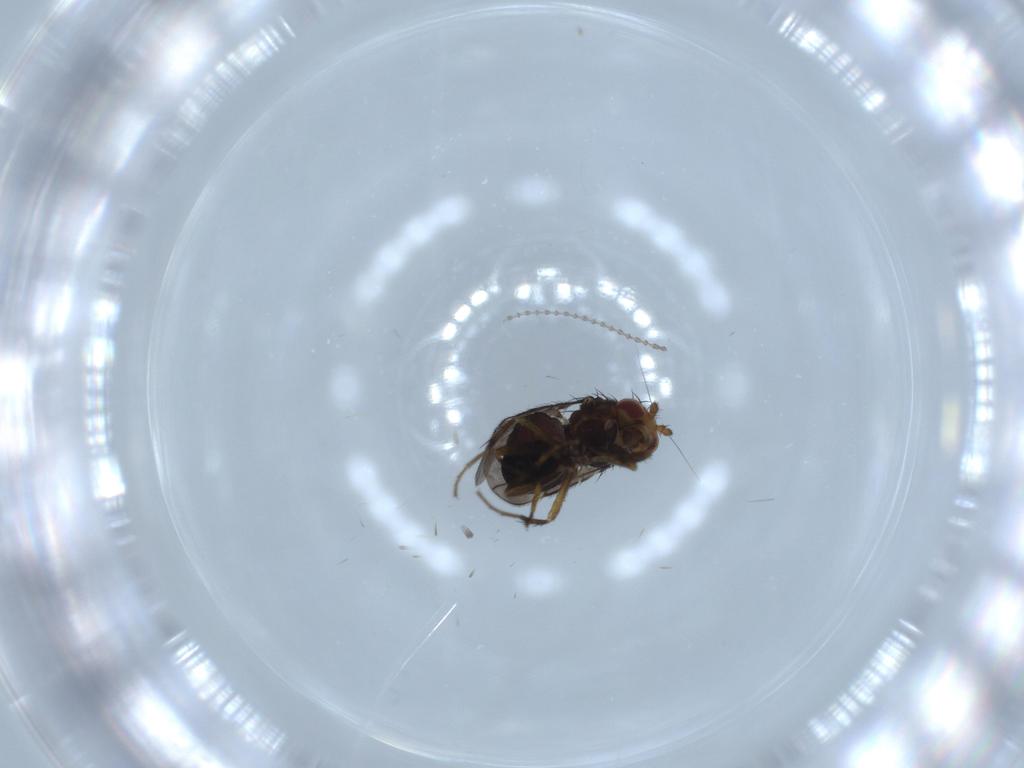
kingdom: Animalia
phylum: Arthropoda
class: Insecta
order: Diptera
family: Cecidomyiidae
